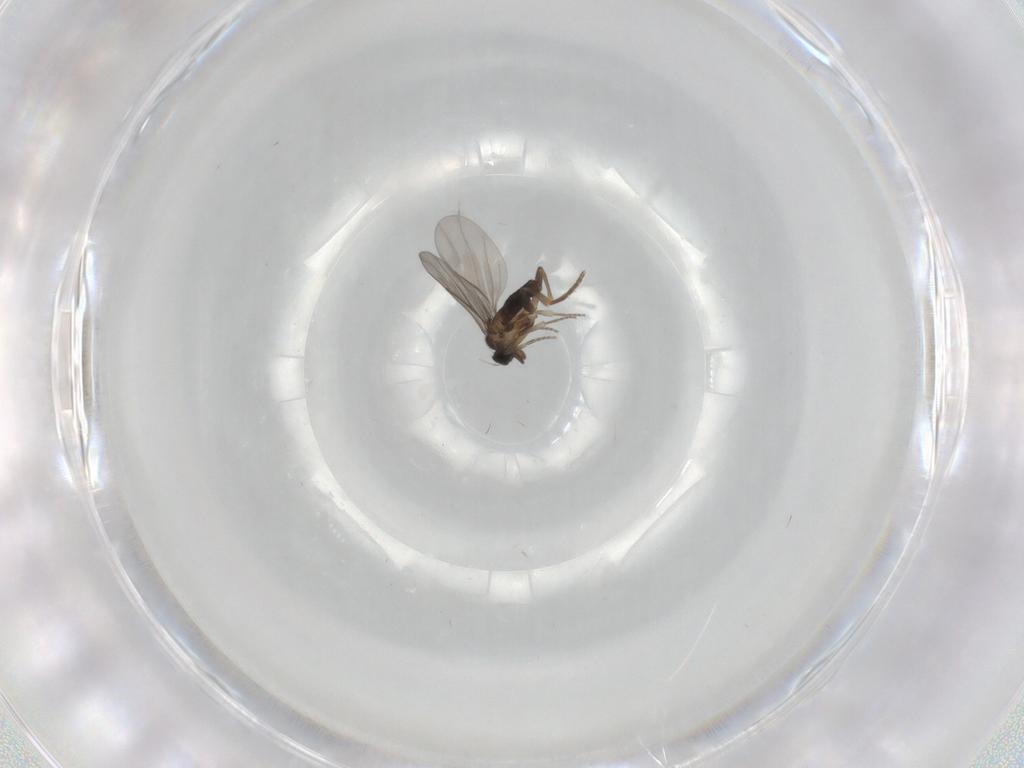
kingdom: Animalia
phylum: Arthropoda
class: Insecta
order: Diptera
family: Cecidomyiidae
